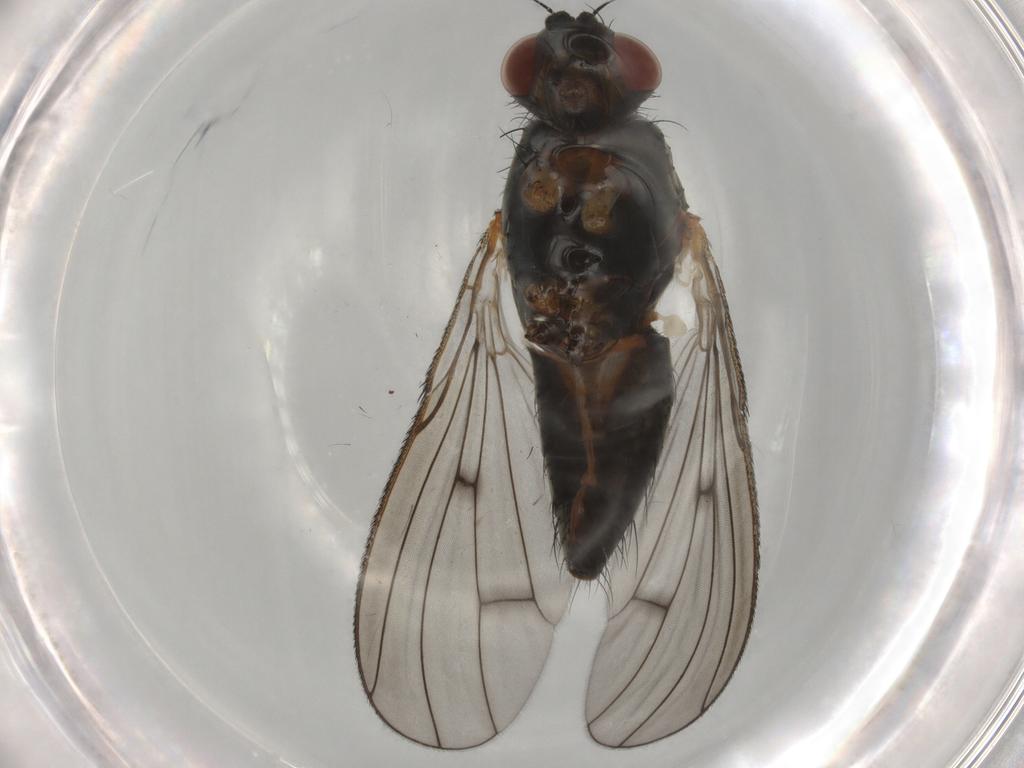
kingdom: Animalia
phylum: Arthropoda
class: Insecta
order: Diptera
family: Anthomyiidae
